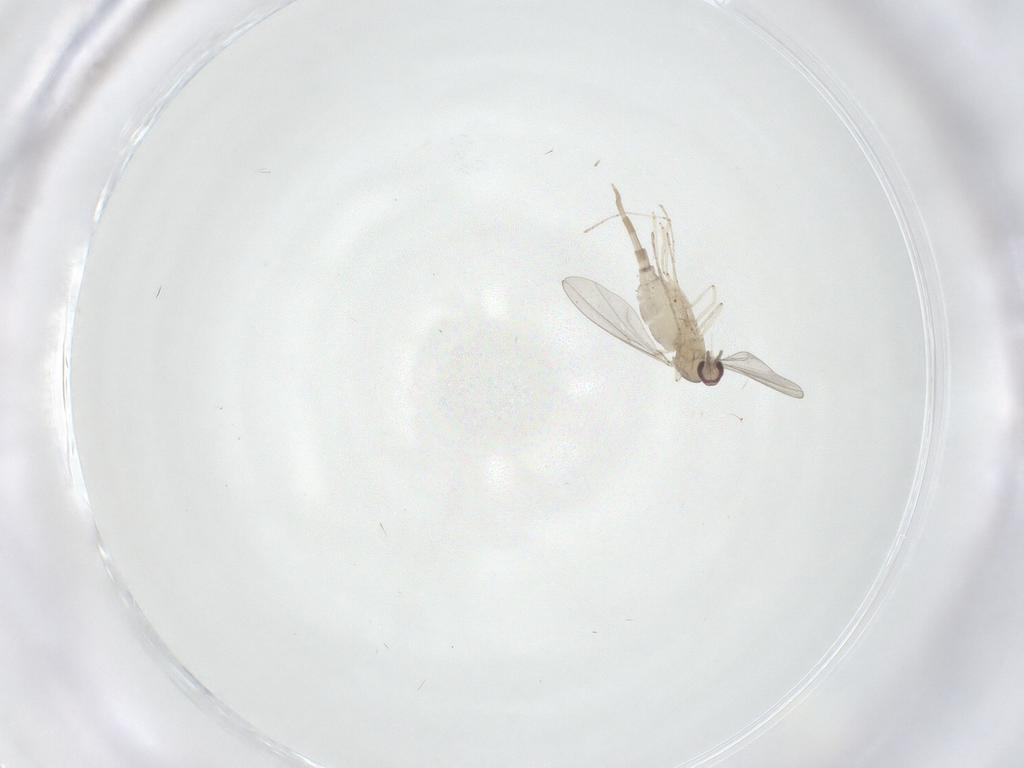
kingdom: Animalia
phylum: Arthropoda
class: Insecta
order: Diptera
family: Cecidomyiidae
